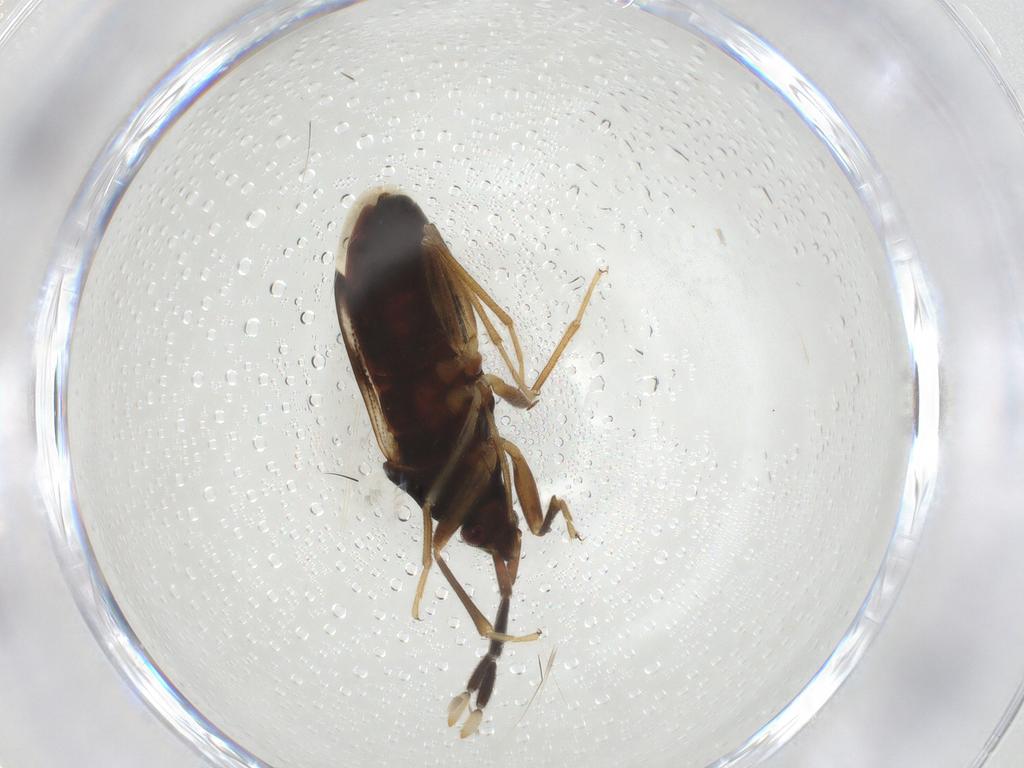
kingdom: Animalia
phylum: Arthropoda
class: Insecta
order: Hemiptera
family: Rhyparochromidae
